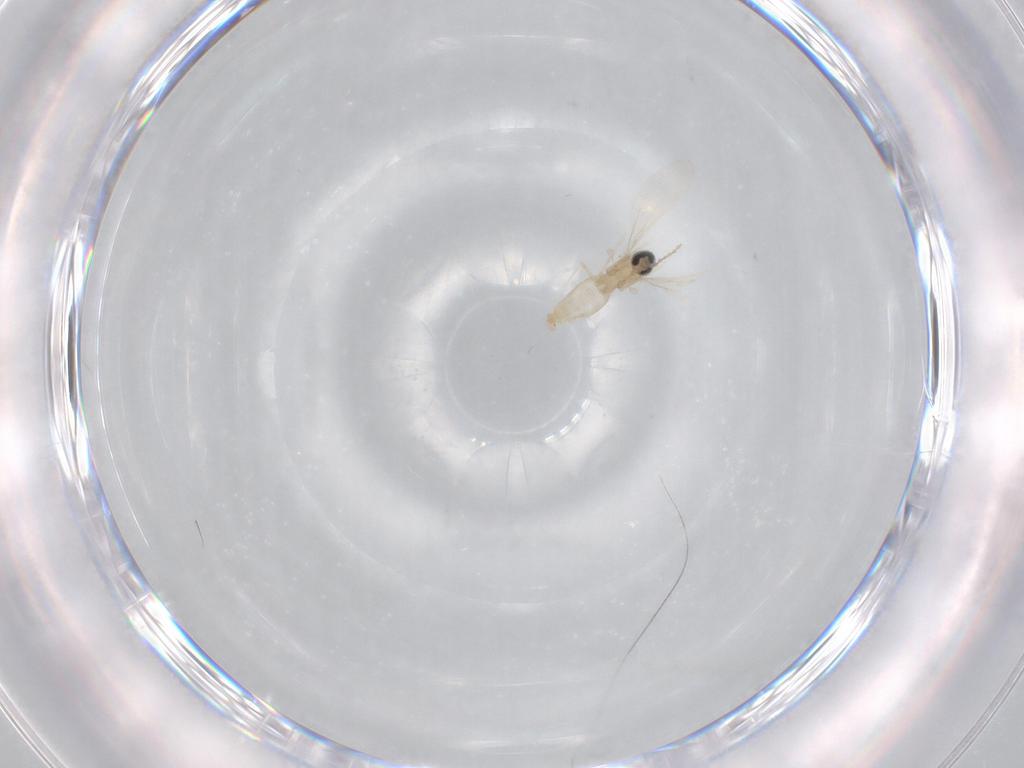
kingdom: Animalia
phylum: Arthropoda
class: Insecta
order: Diptera
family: Cecidomyiidae
